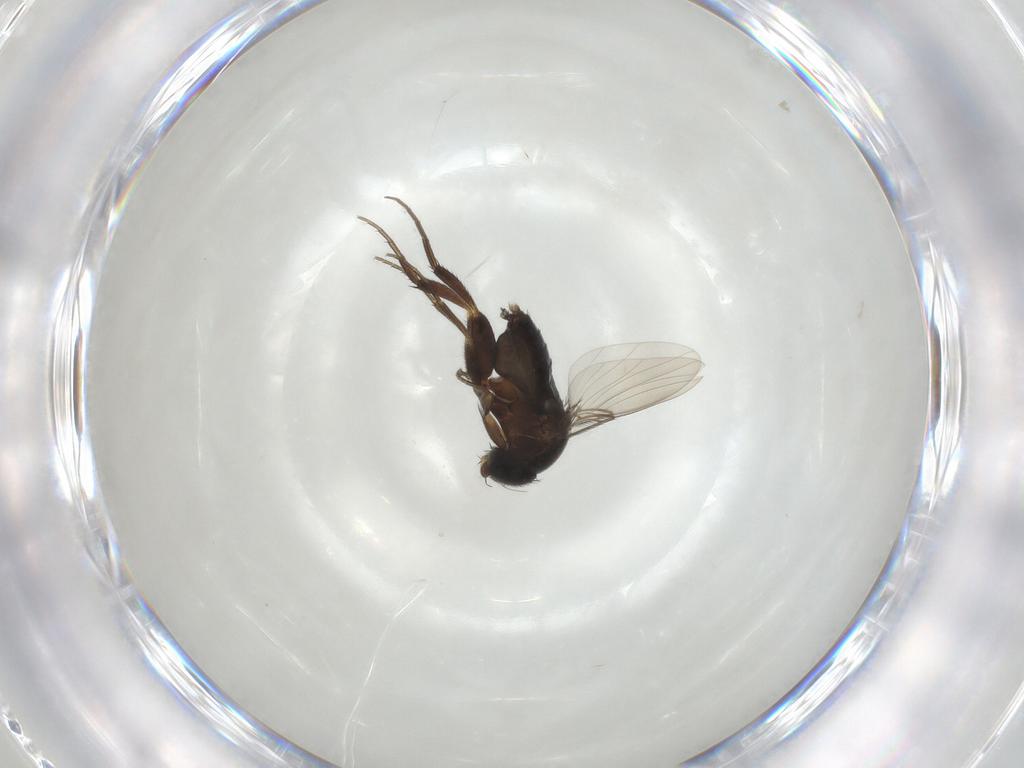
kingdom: Animalia
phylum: Arthropoda
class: Insecta
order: Diptera
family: Phoridae
